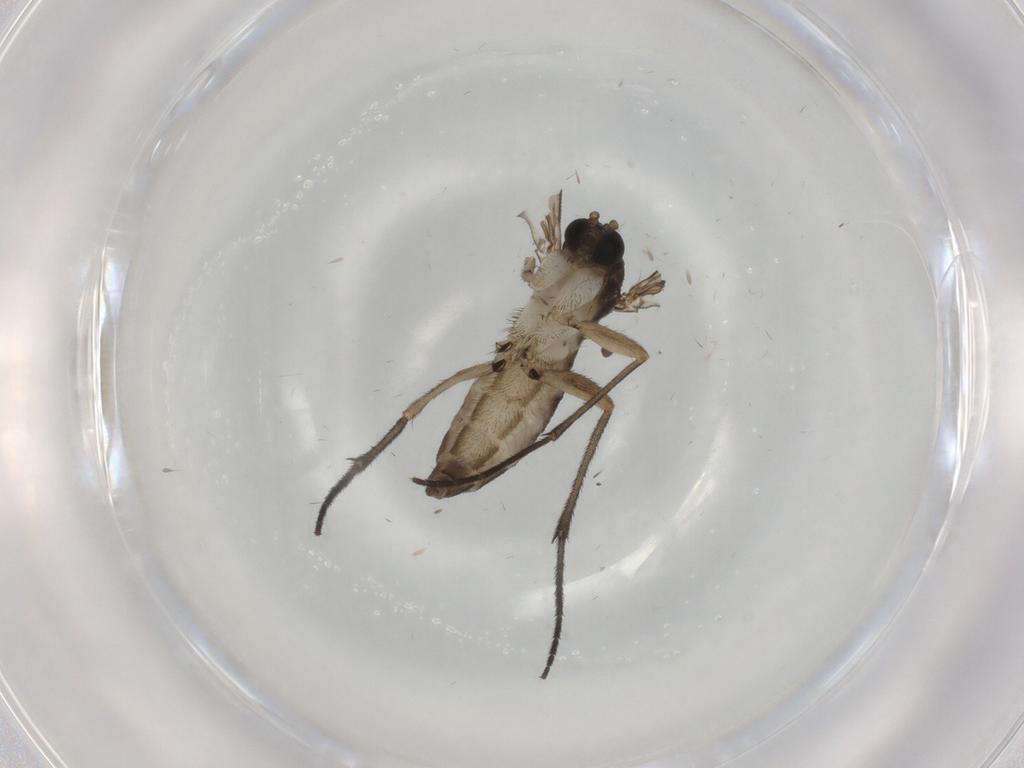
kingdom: Animalia
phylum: Arthropoda
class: Insecta
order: Diptera
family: Sciaridae
